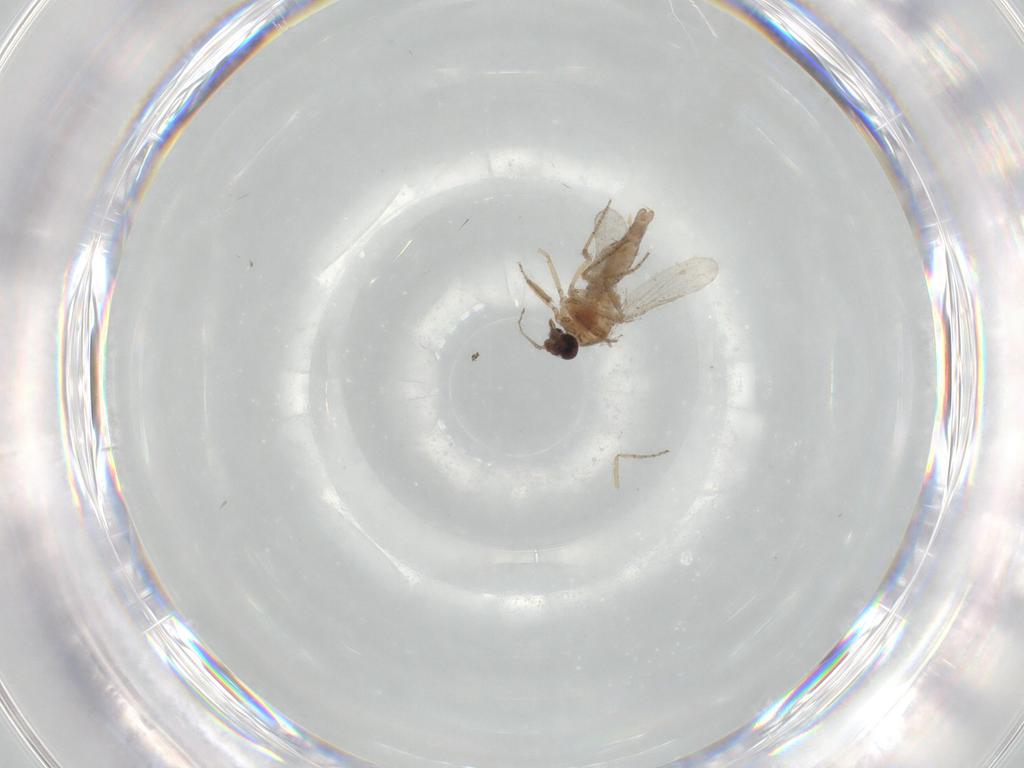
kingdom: Animalia
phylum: Arthropoda
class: Insecta
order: Diptera
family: Ceratopogonidae
